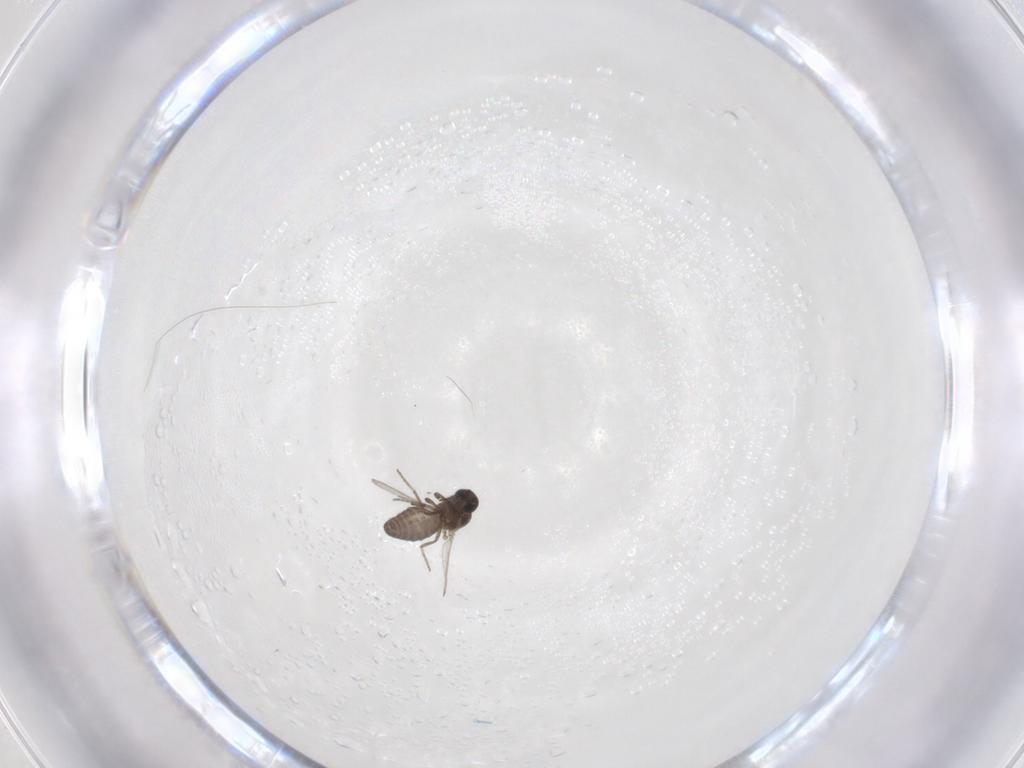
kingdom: Animalia
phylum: Arthropoda
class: Insecta
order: Diptera
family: Ceratopogonidae
